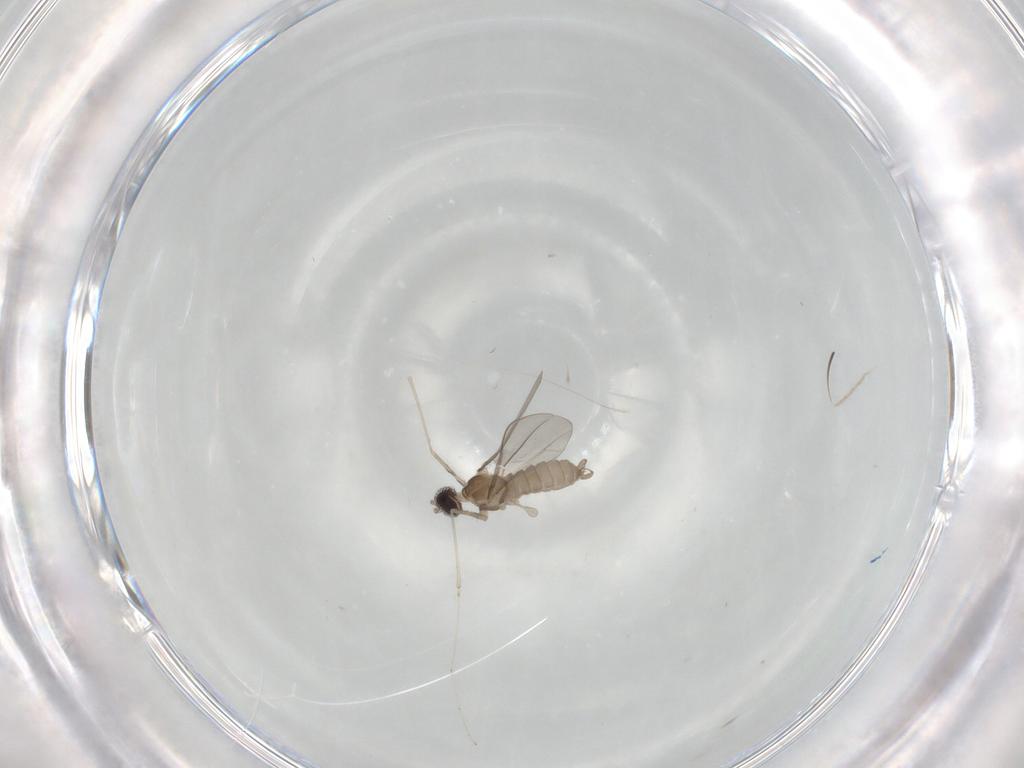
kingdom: Animalia
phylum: Arthropoda
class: Insecta
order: Diptera
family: Cecidomyiidae
